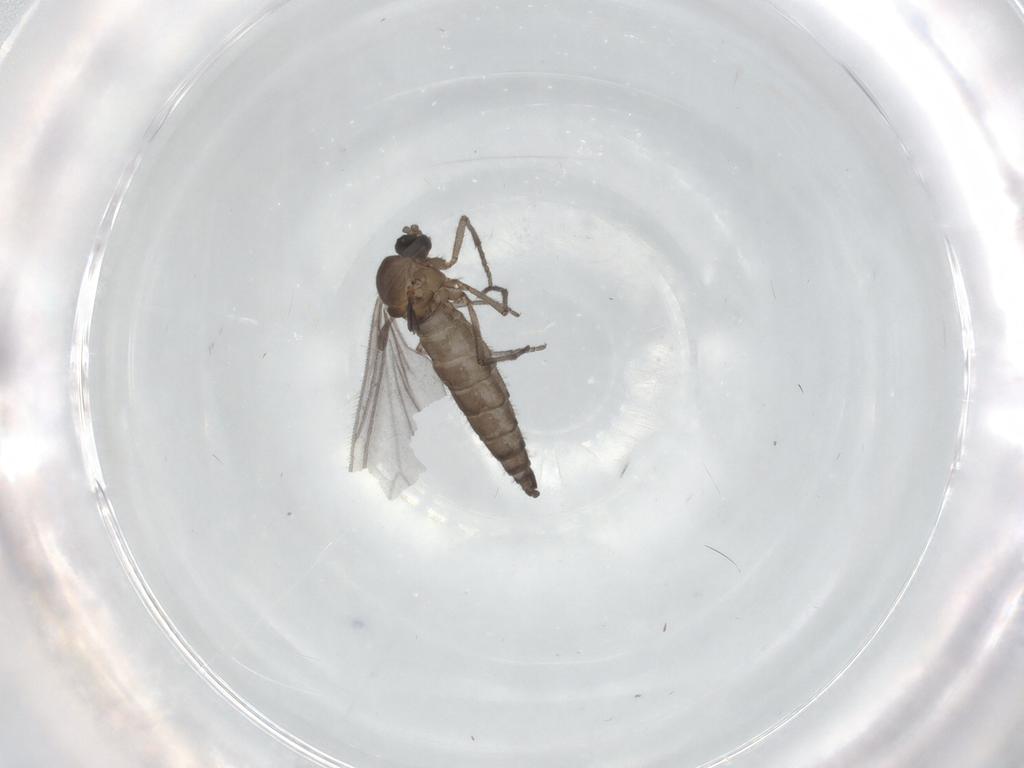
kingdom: Animalia
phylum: Arthropoda
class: Insecta
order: Diptera
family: Sciaridae
